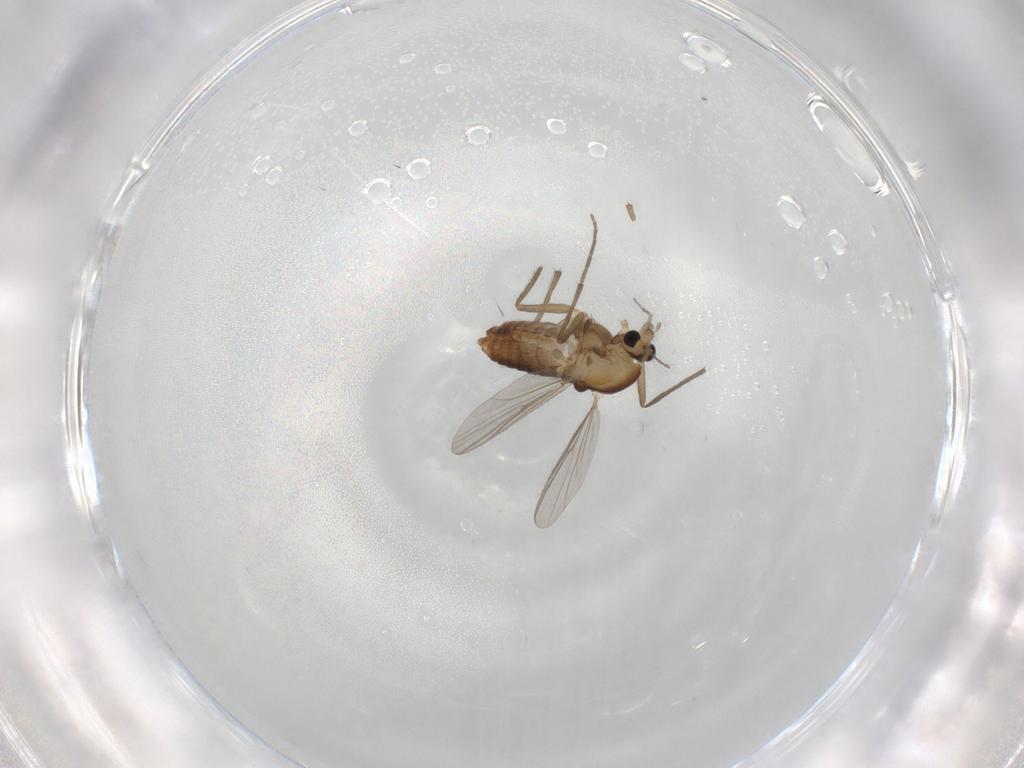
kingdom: Animalia
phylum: Arthropoda
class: Insecta
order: Diptera
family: Chironomidae
